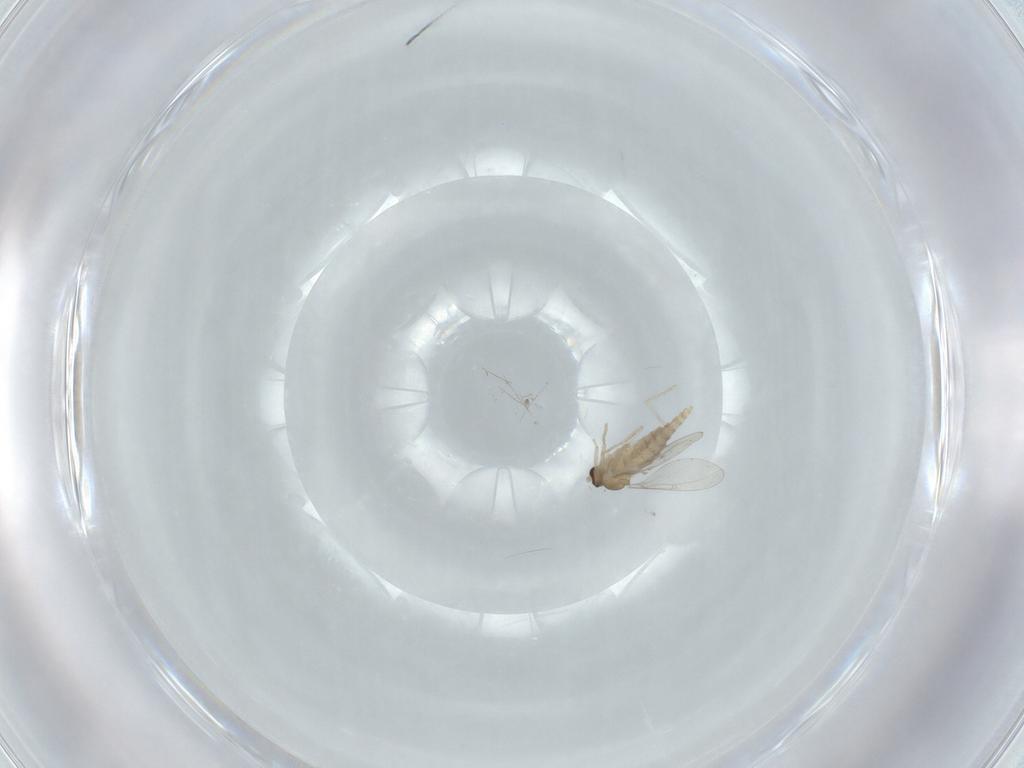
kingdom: Animalia
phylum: Arthropoda
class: Insecta
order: Diptera
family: Cecidomyiidae
